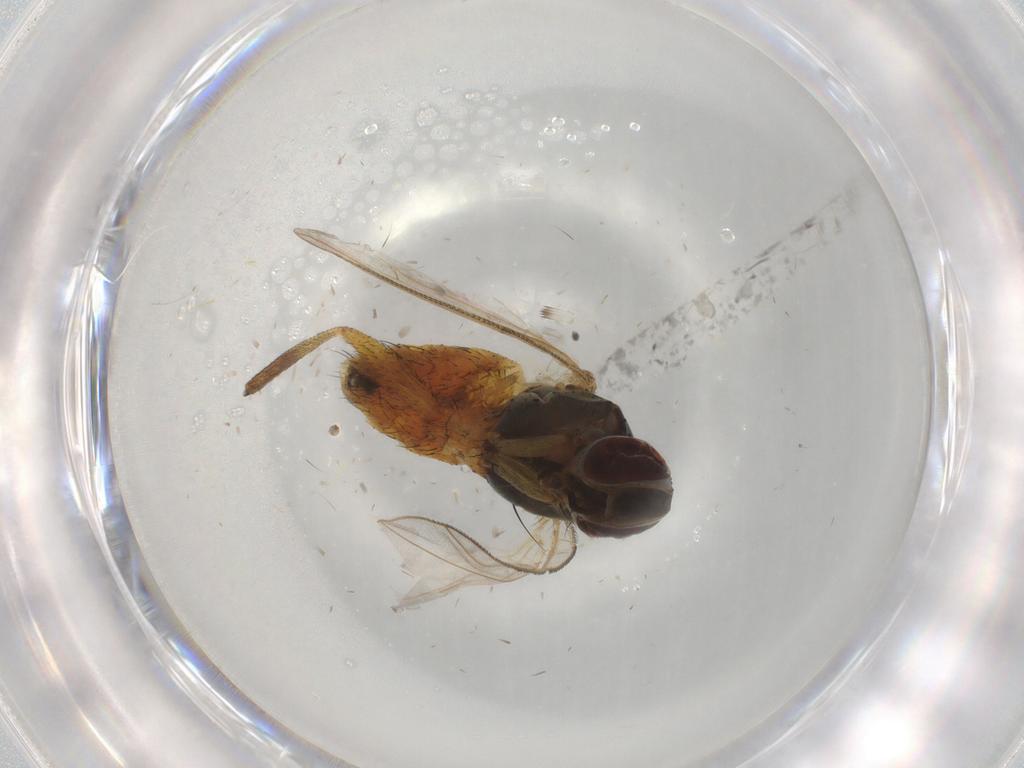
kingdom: Animalia
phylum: Arthropoda
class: Insecta
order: Diptera
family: Muscidae
